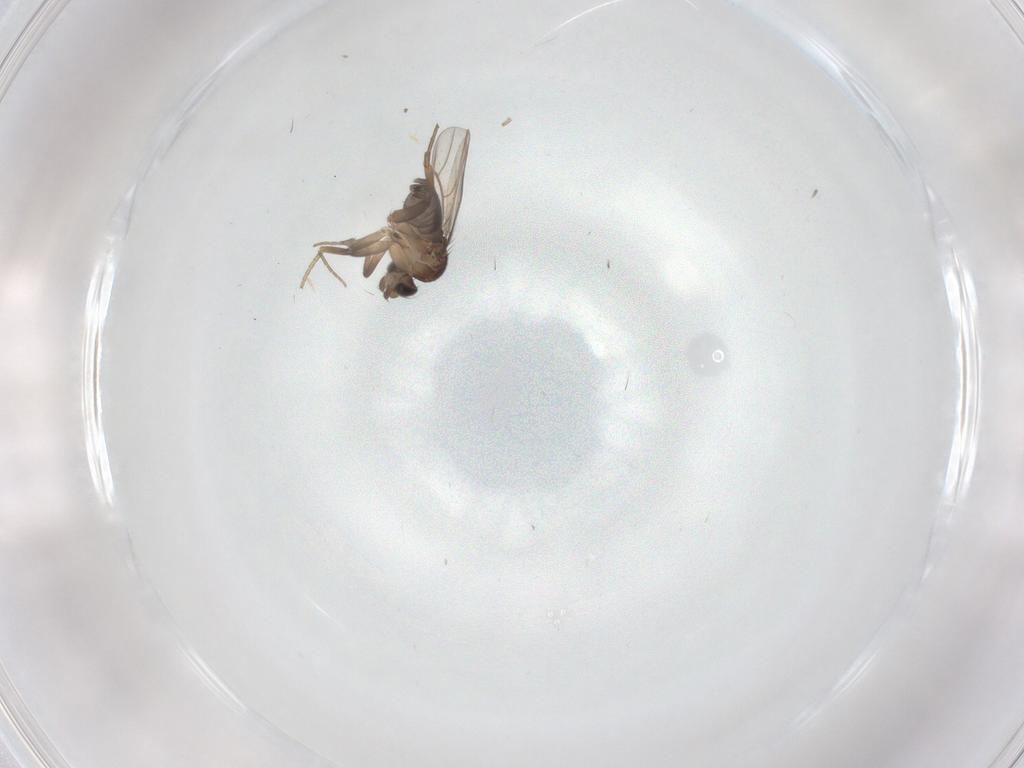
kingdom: Animalia
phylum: Arthropoda
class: Insecta
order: Diptera
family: Phoridae
